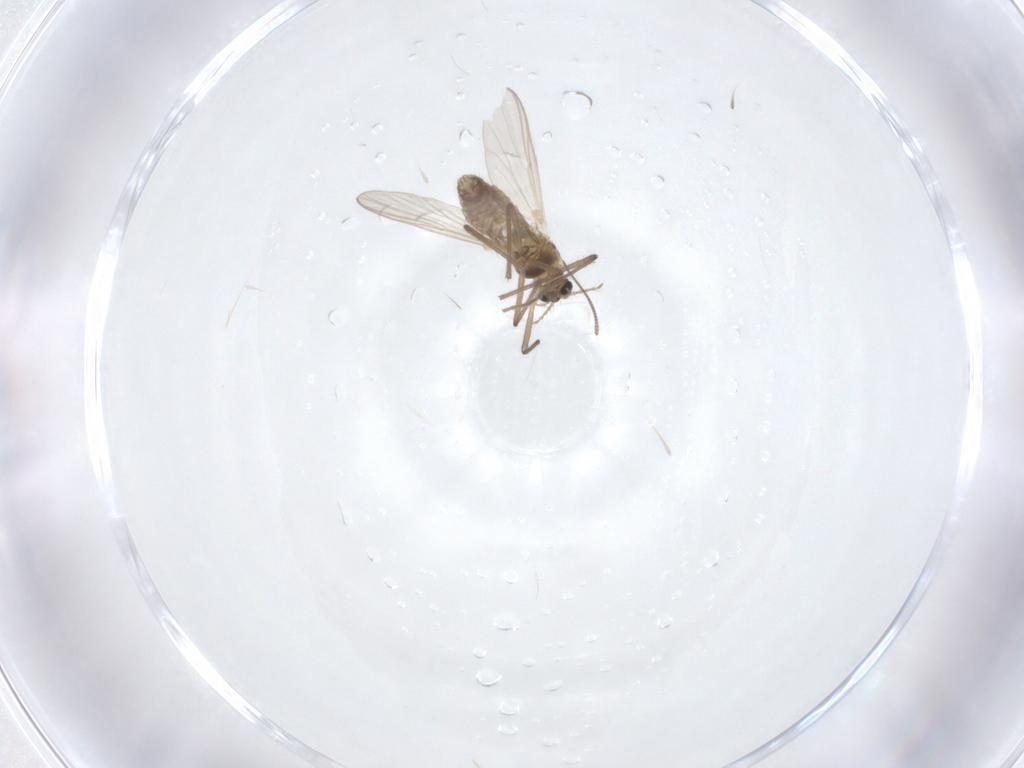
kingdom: Animalia
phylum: Arthropoda
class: Insecta
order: Diptera
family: Chironomidae
